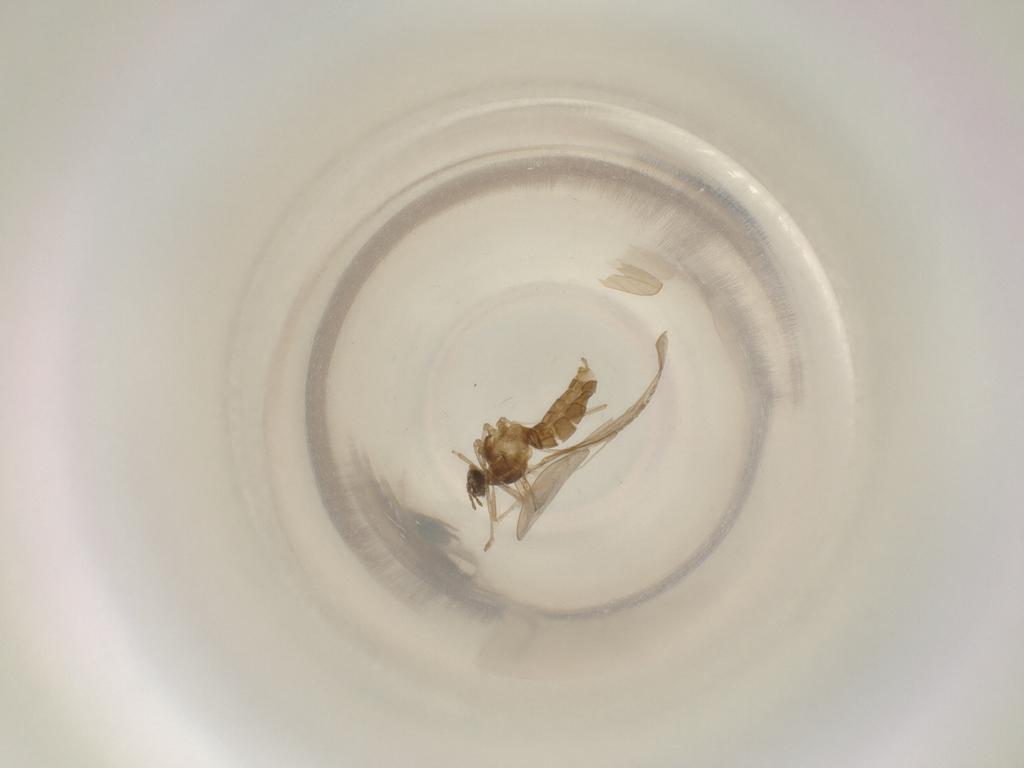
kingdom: Animalia
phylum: Arthropoda
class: Insecta
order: Diptera
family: Cecidomyiidae
